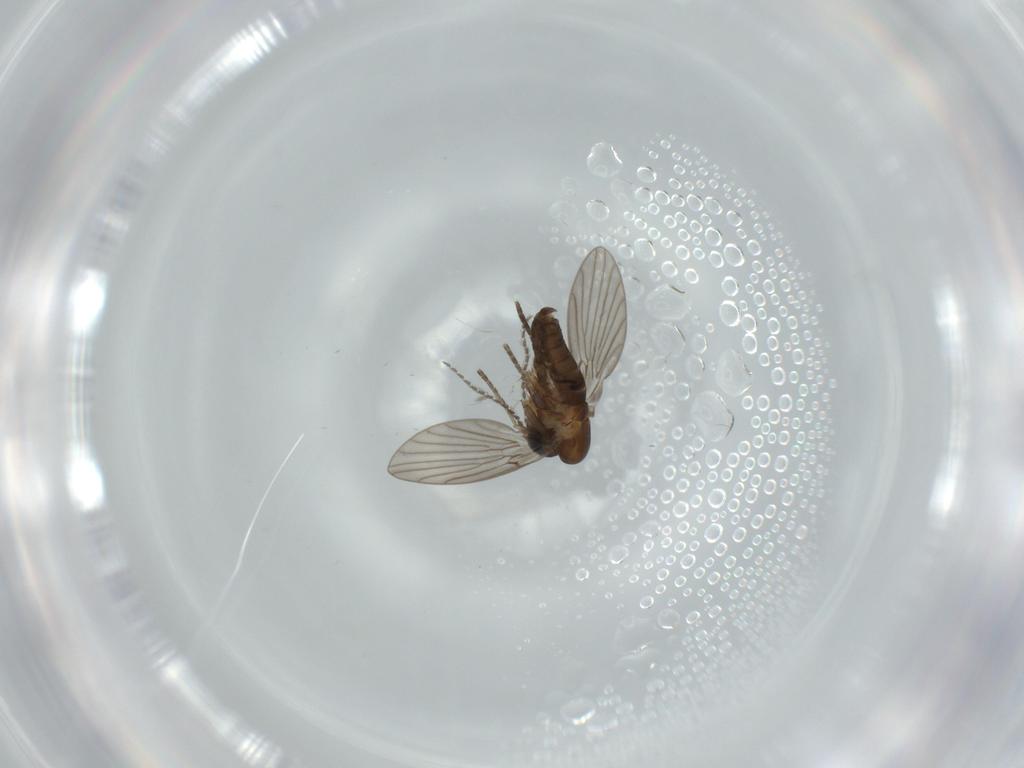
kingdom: Animalia
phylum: Arthropoda
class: Insecta
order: Diptera
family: Psychodidae
